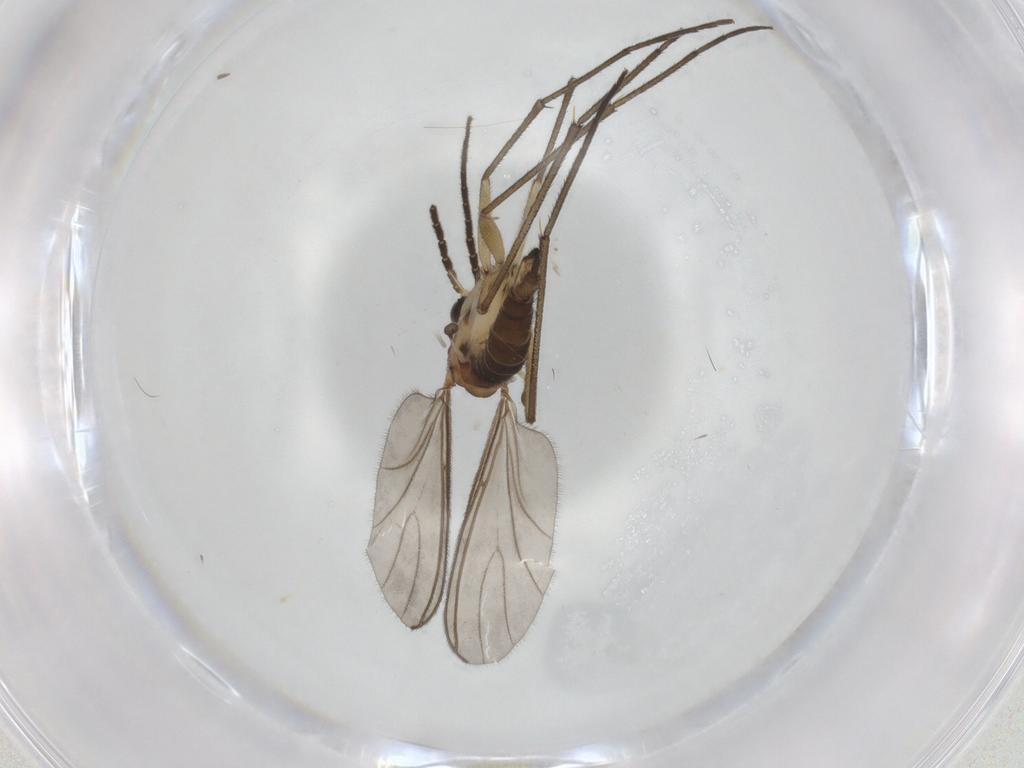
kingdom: Animalia
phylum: Arthropoda
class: Insecta
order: Diptera
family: Sciaridae
